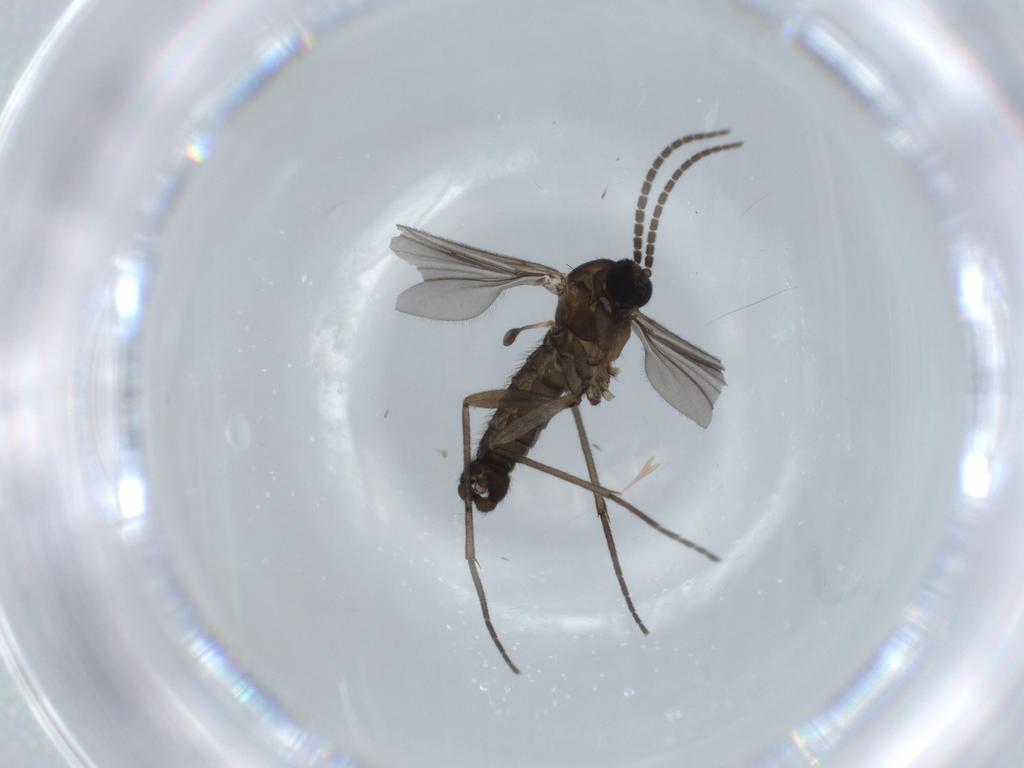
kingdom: Animalia
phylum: Arthropoda
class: Insecta
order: Diptera
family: Sciaridae
